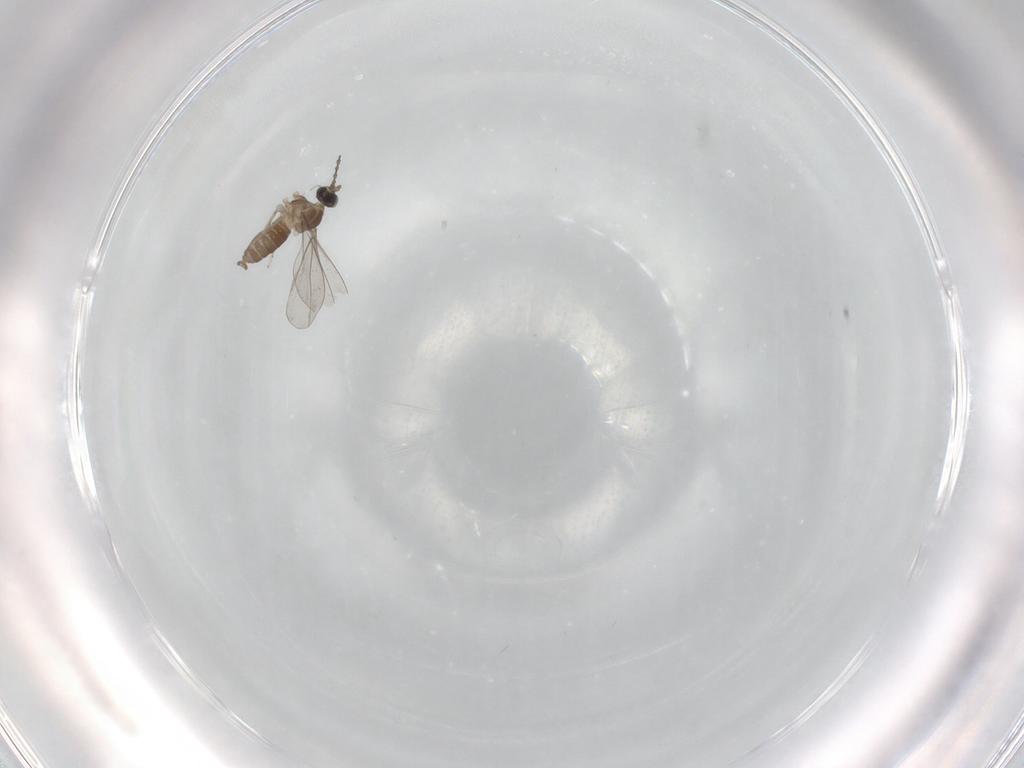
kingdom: Animalia
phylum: Arthropoda
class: Insecta
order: Diptera
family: Cecidomyiidae
